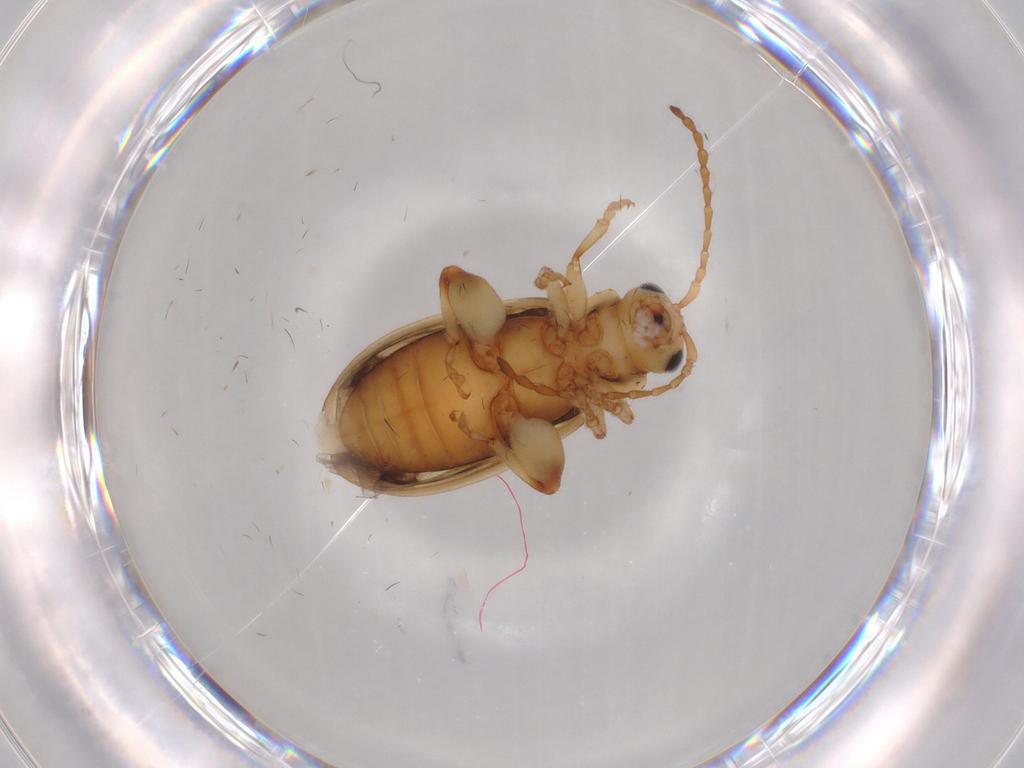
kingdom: Animalia
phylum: Arthropoda
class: Insecta
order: Coleoptera
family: Chrysomelidae
